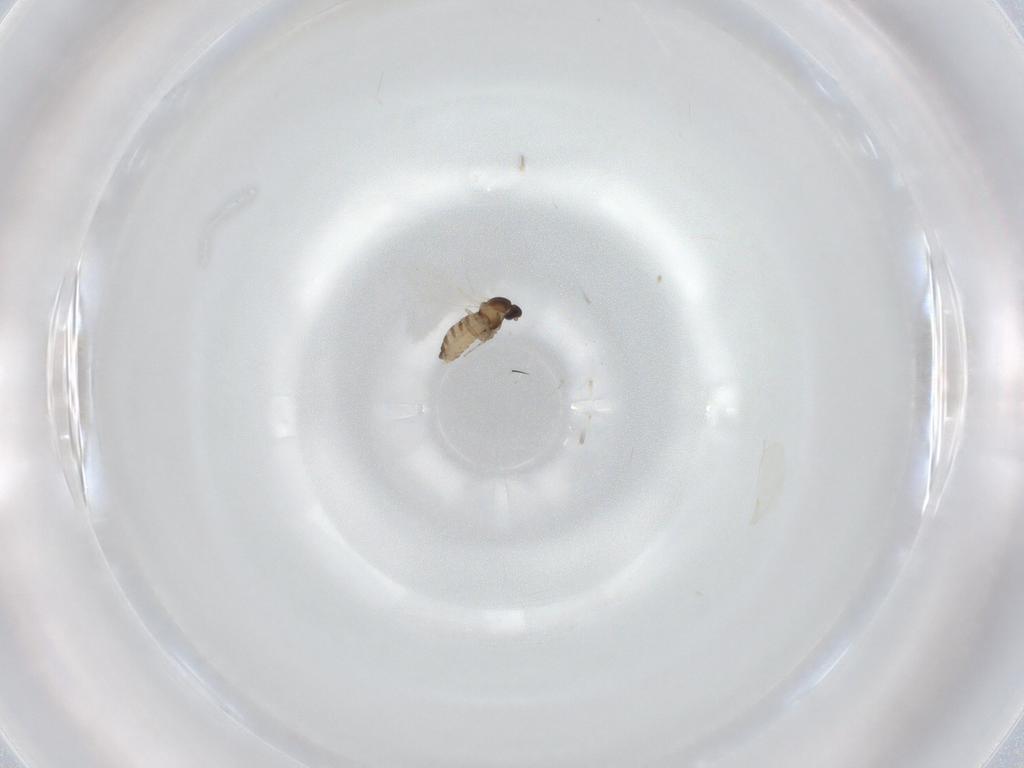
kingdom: Animalia
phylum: Arthropoda
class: Insecta
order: Diptera
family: Cecidomyiidae
